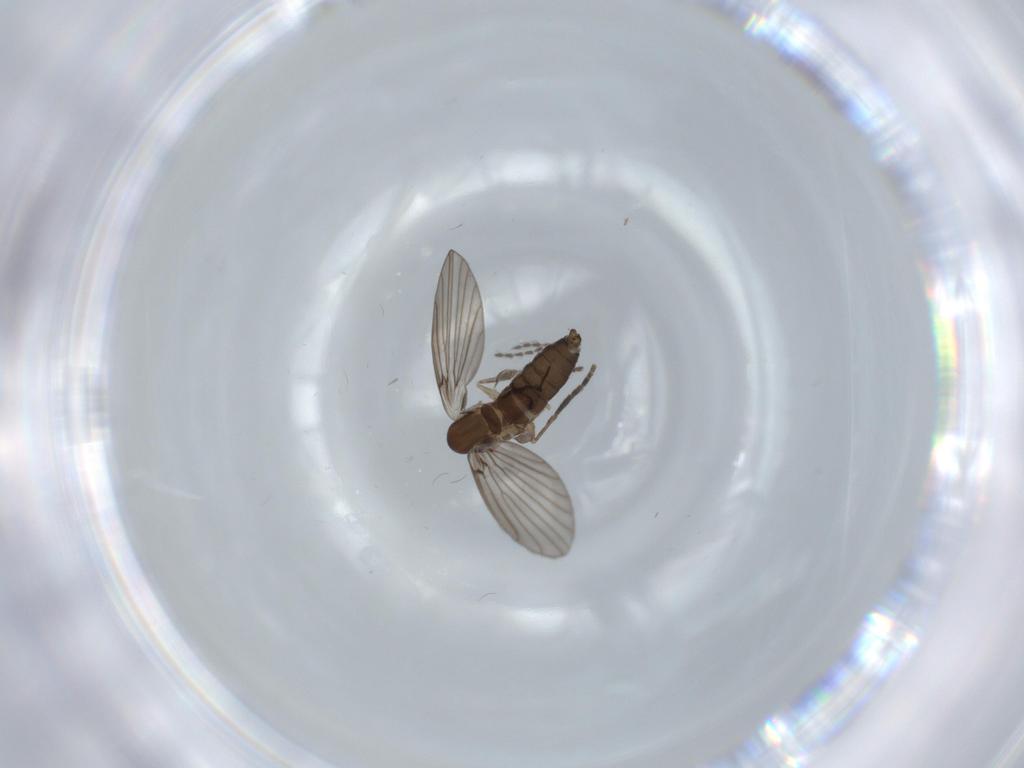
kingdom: Animalia
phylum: Arthropoda
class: Insecta
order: Diptera
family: Psychodidae
